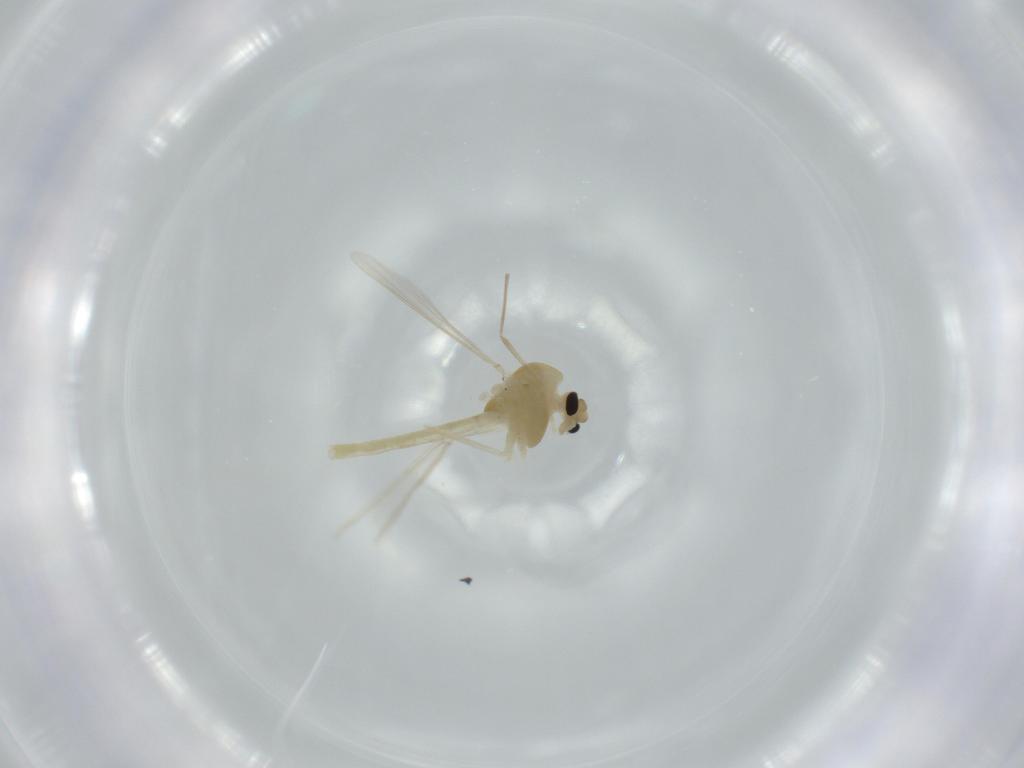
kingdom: Animalia
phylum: Arthropoda
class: Insecta
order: Diptera
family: Chironomidae
